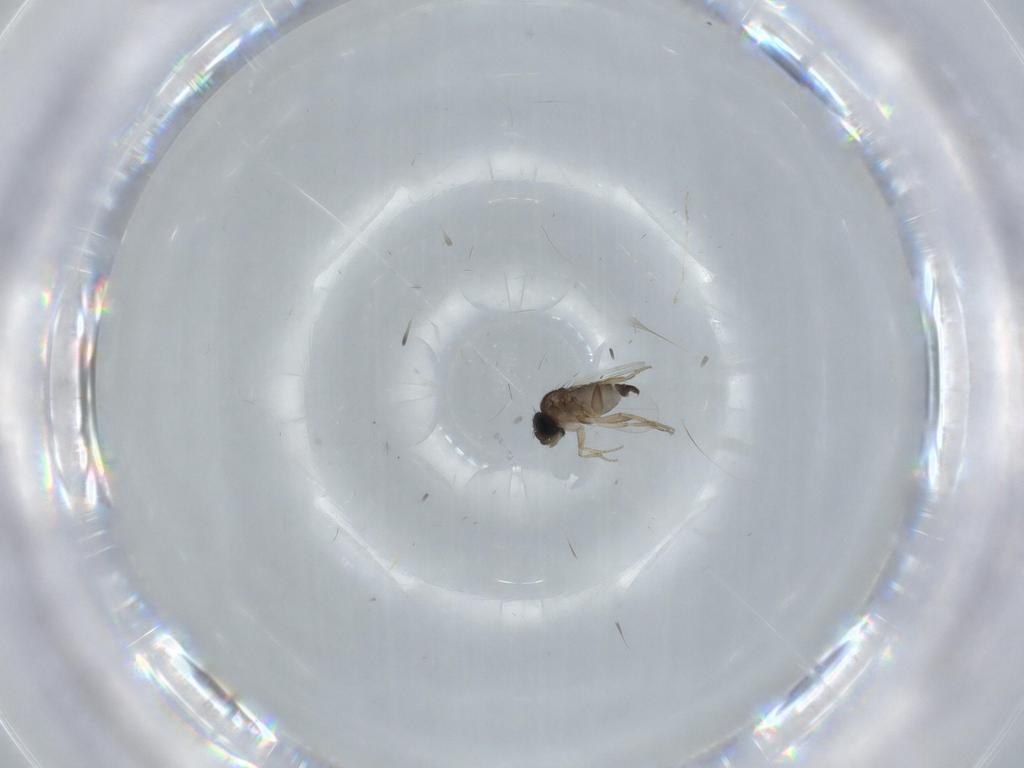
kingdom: Animalia
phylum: Arthropoda
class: Insecta
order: Diptera
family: Phoridae
